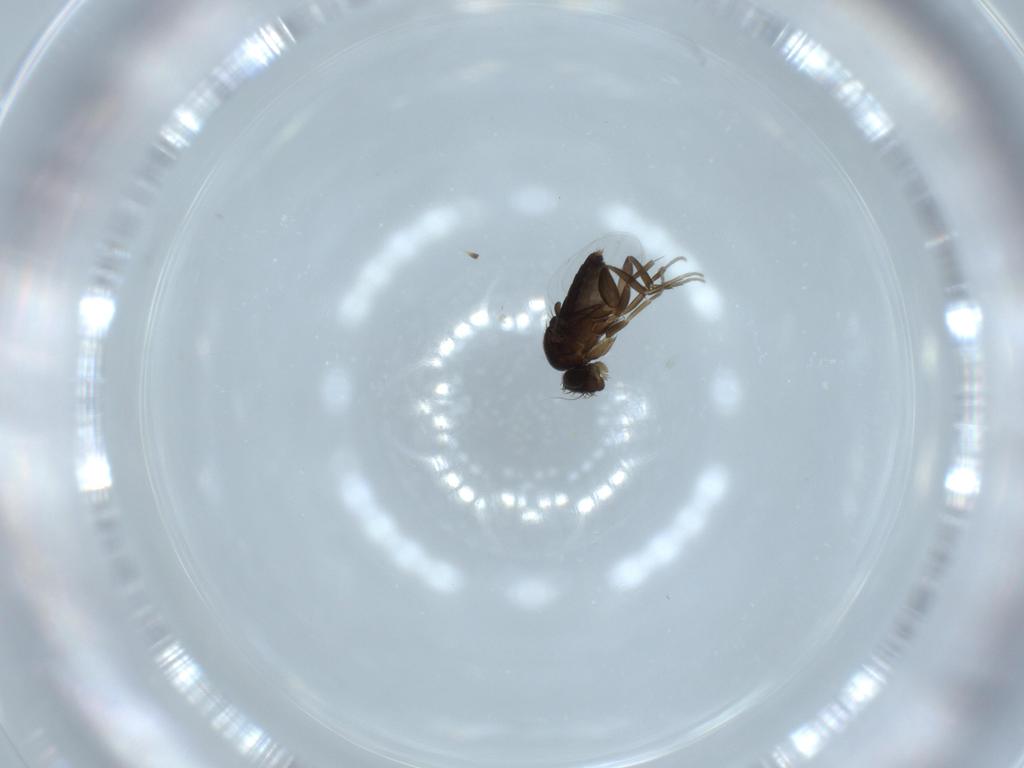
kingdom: Animalia
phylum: Arthropoda
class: Insecta
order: Diptera
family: Phoridae
